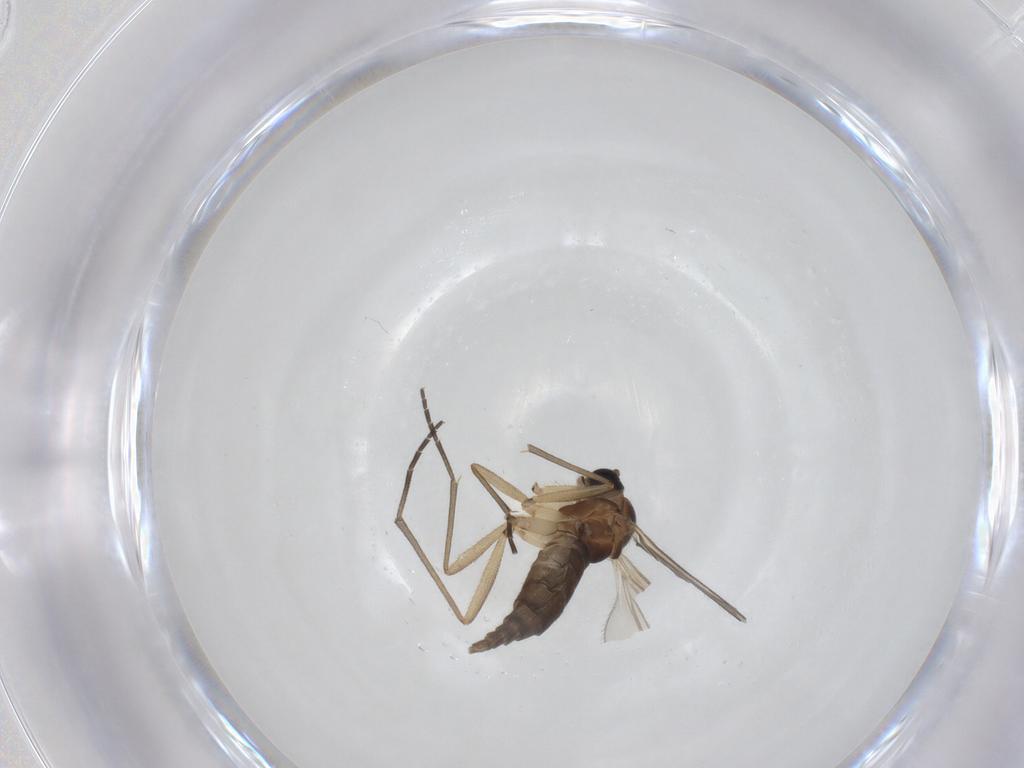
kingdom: Animalia
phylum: Arthropoda
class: Insecta
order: Diptera
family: Sciaridae
